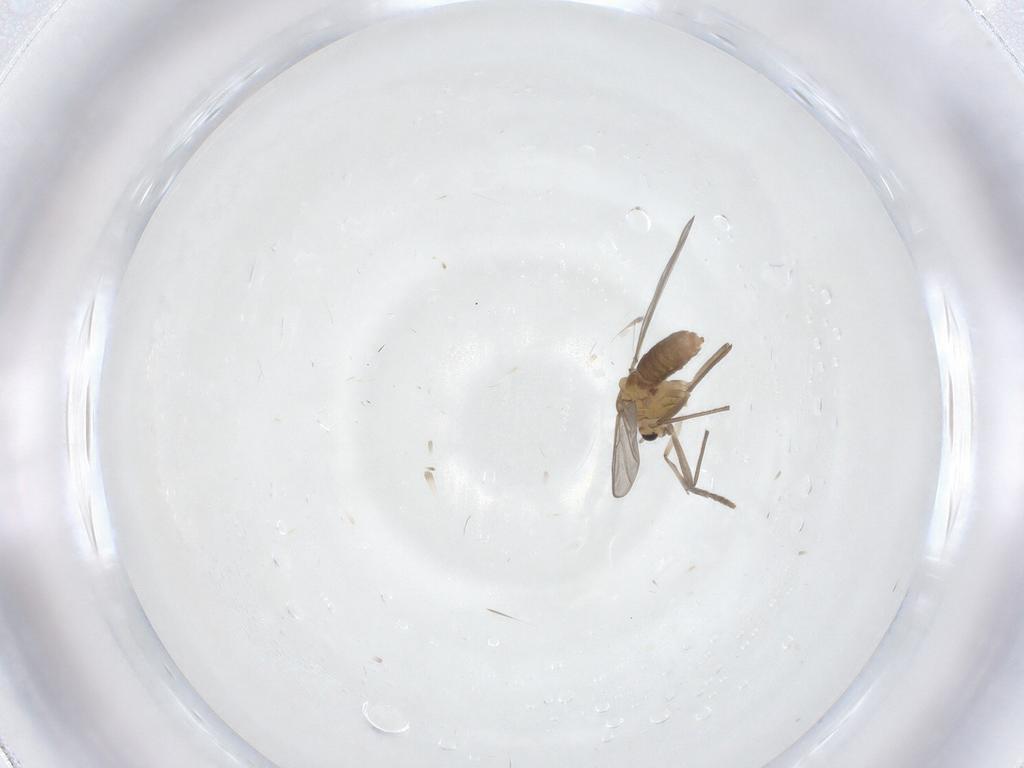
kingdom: Animalia
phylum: Arthropoda
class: Insecta
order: Diptera
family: Chironomidae
